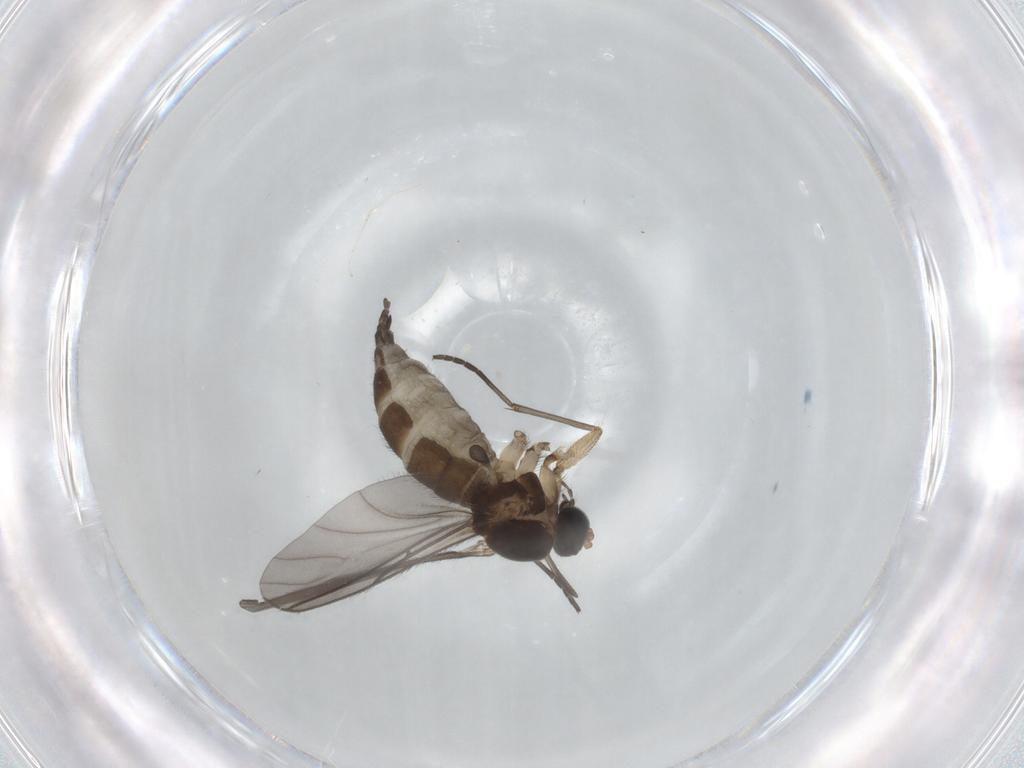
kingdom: Animalia
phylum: Arthropoda
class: Insecta
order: Diptera
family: Sciaridae
